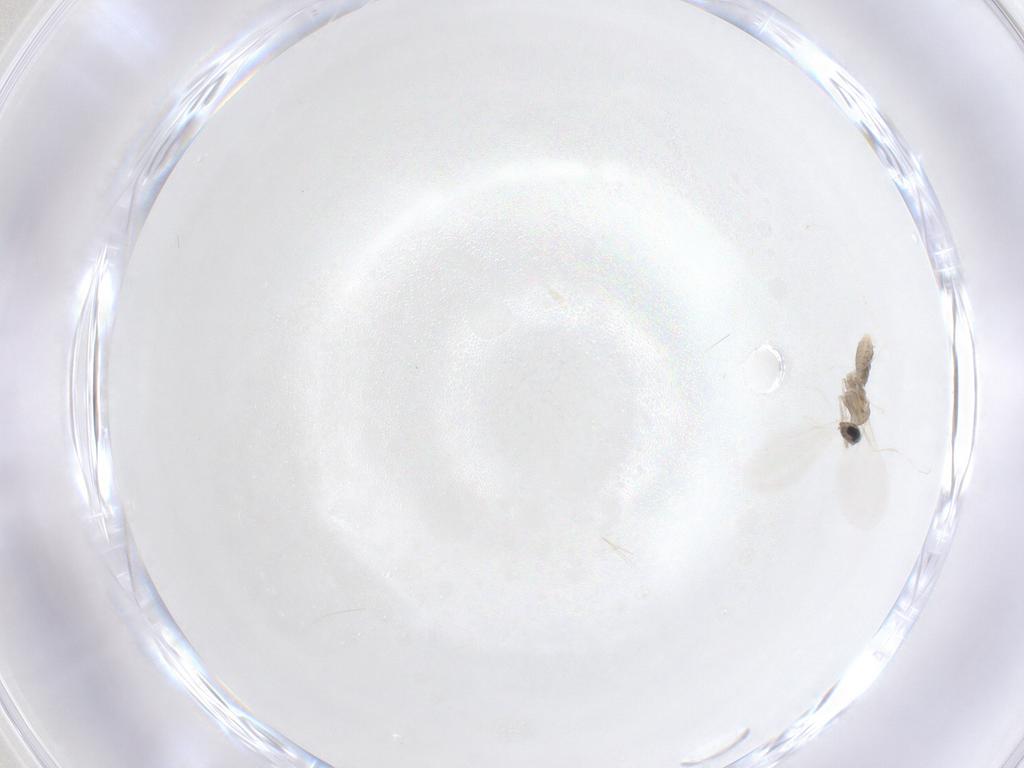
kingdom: Animalia
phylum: Arthropoda
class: Insecta
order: Diptera
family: Cecidomyiidae
